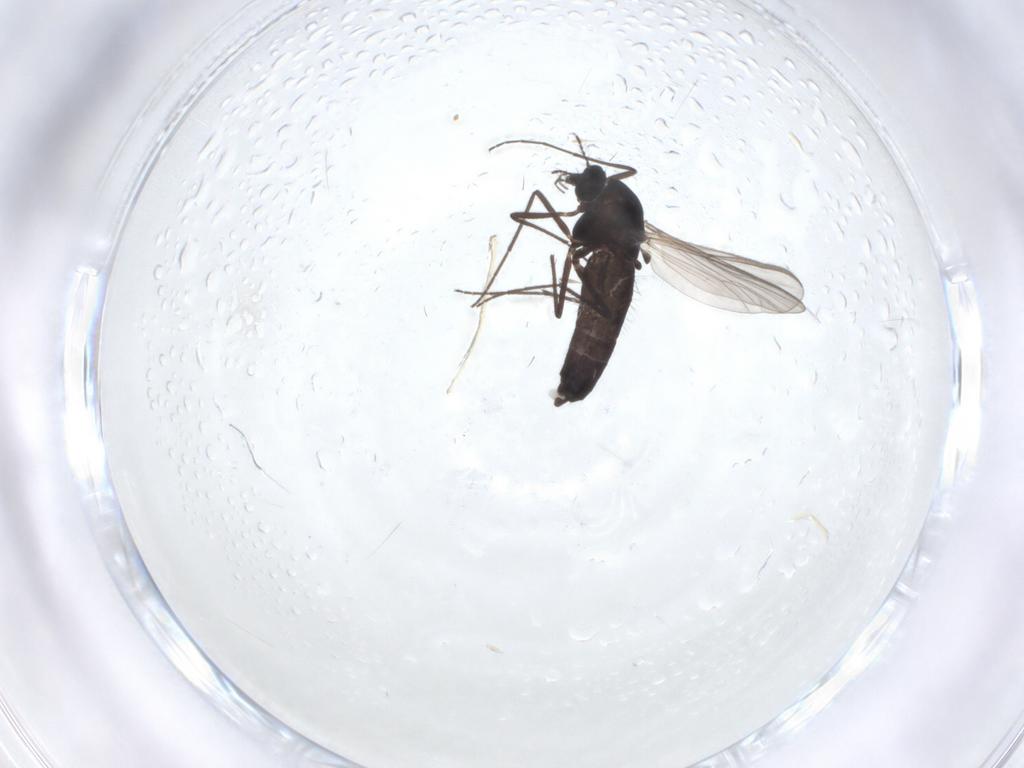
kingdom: Animalia
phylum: Arthropoda
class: Insecta
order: Diptera
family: Chironomidae
